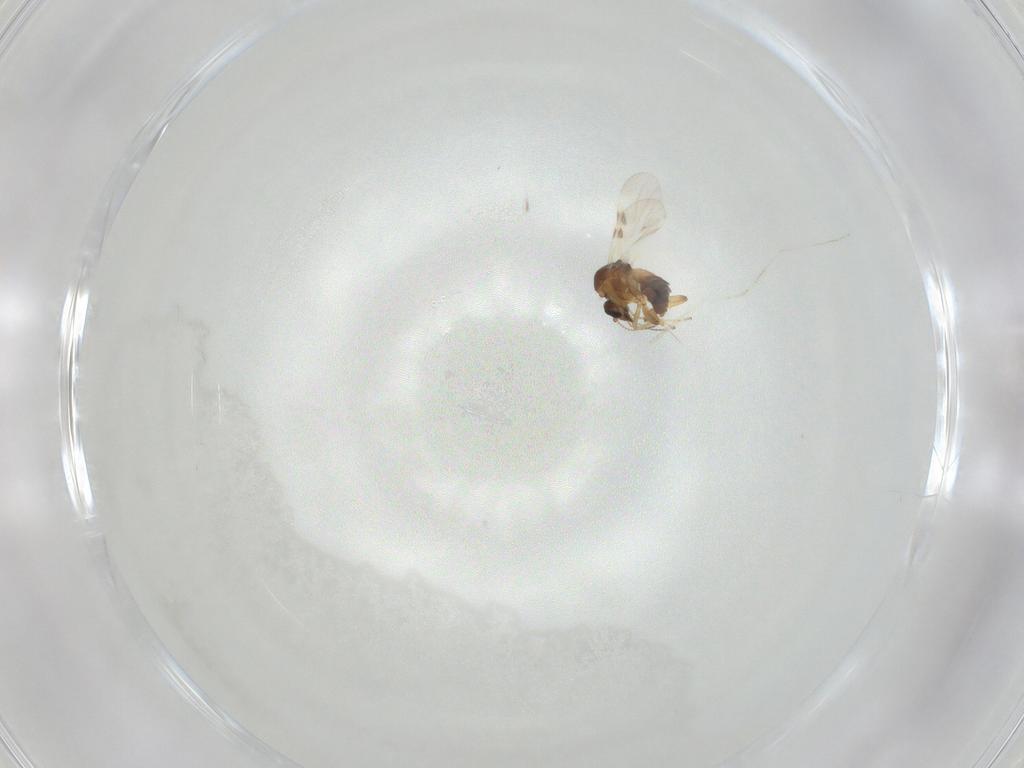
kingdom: Animalia
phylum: Arthropoda
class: Insecta
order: Diptera
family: Ceratopogonidae
